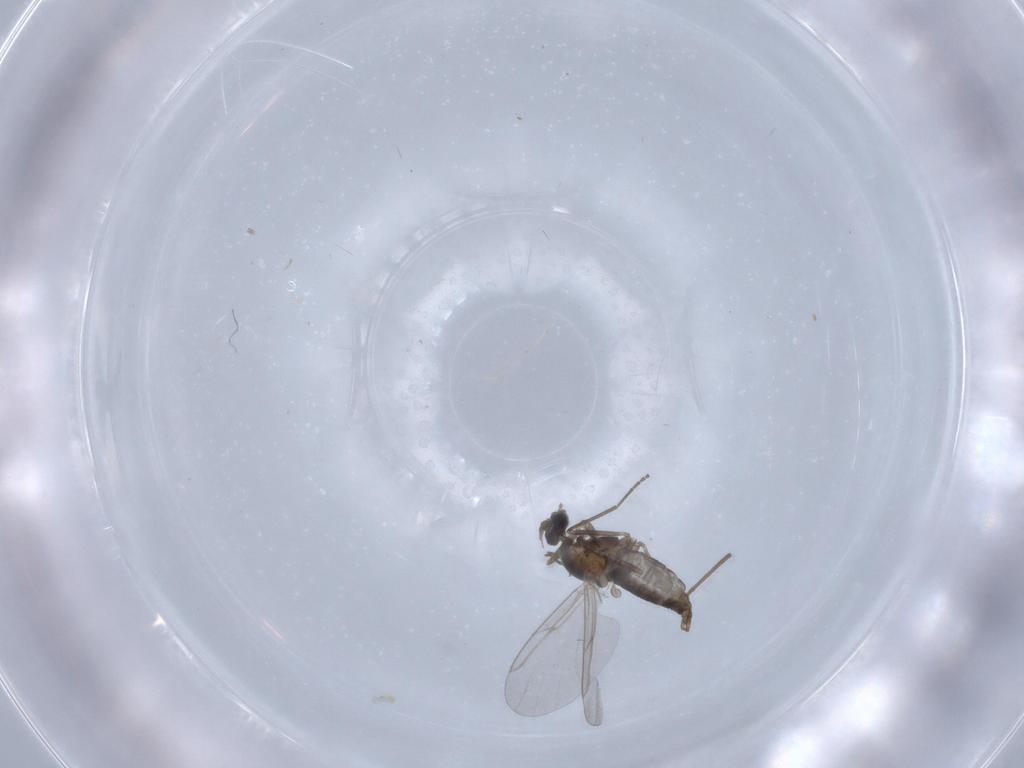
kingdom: Animalia
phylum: Arthropoda
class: Insecta
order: Diptera
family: Cecidomyiidae
